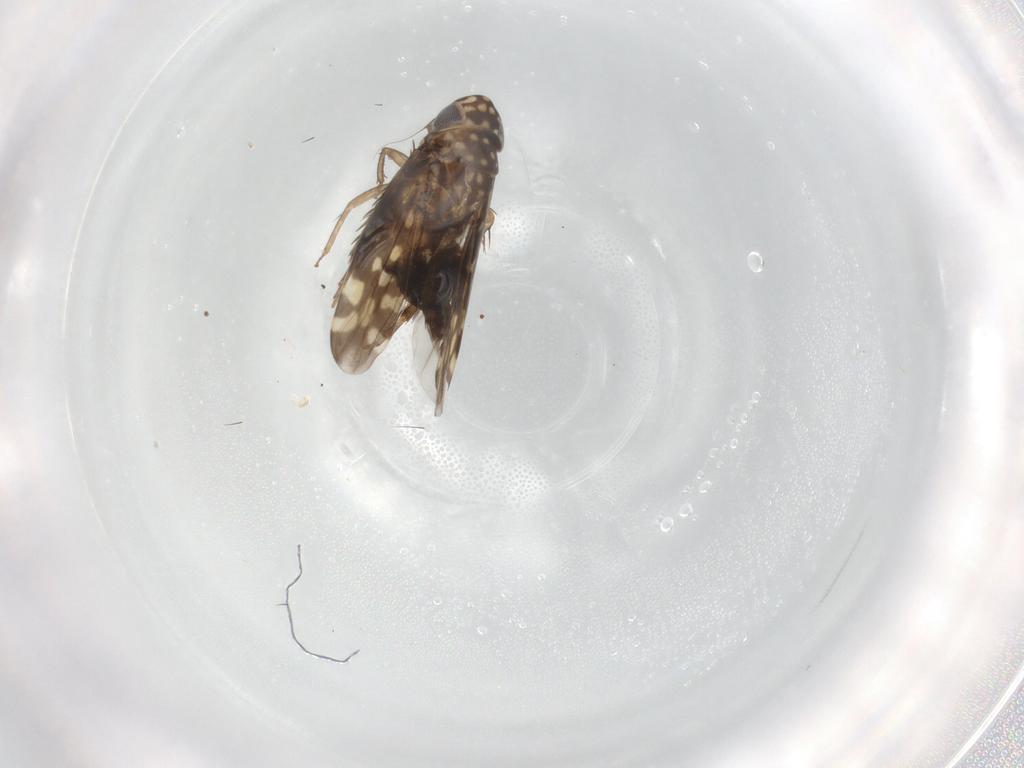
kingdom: Animalia
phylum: Arthropoda
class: Insecta
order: Hemiptera
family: Cicadellidae
